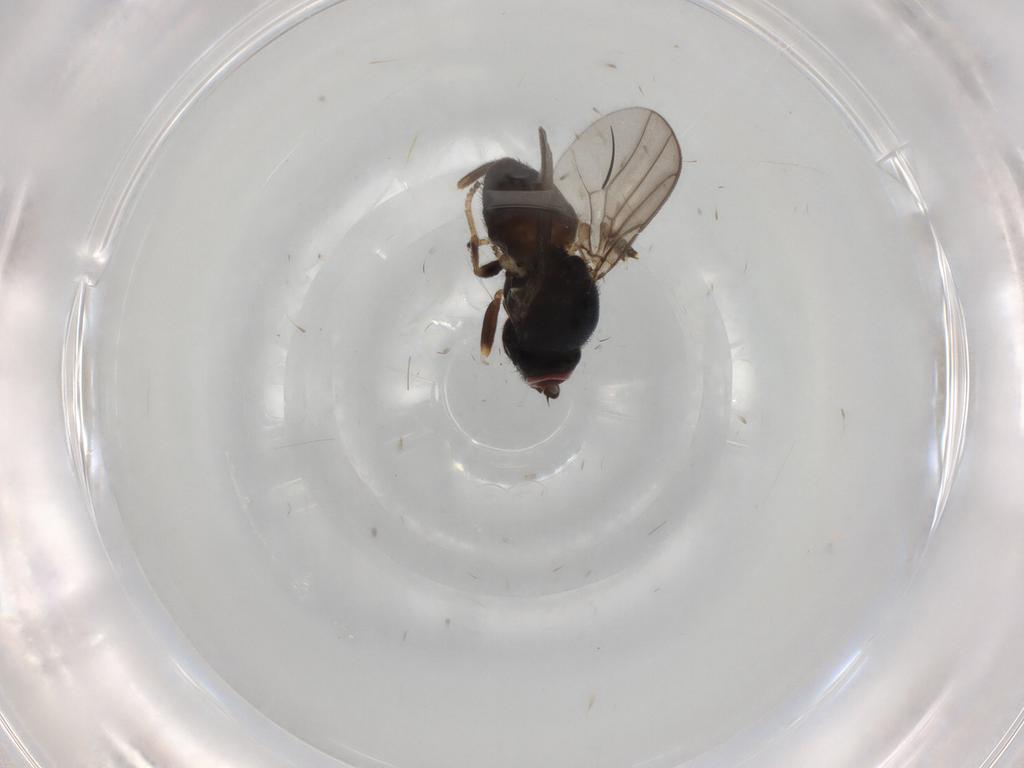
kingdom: Animalia
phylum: Arthropoda
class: Insecta
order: Diptera
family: Chloropidae
